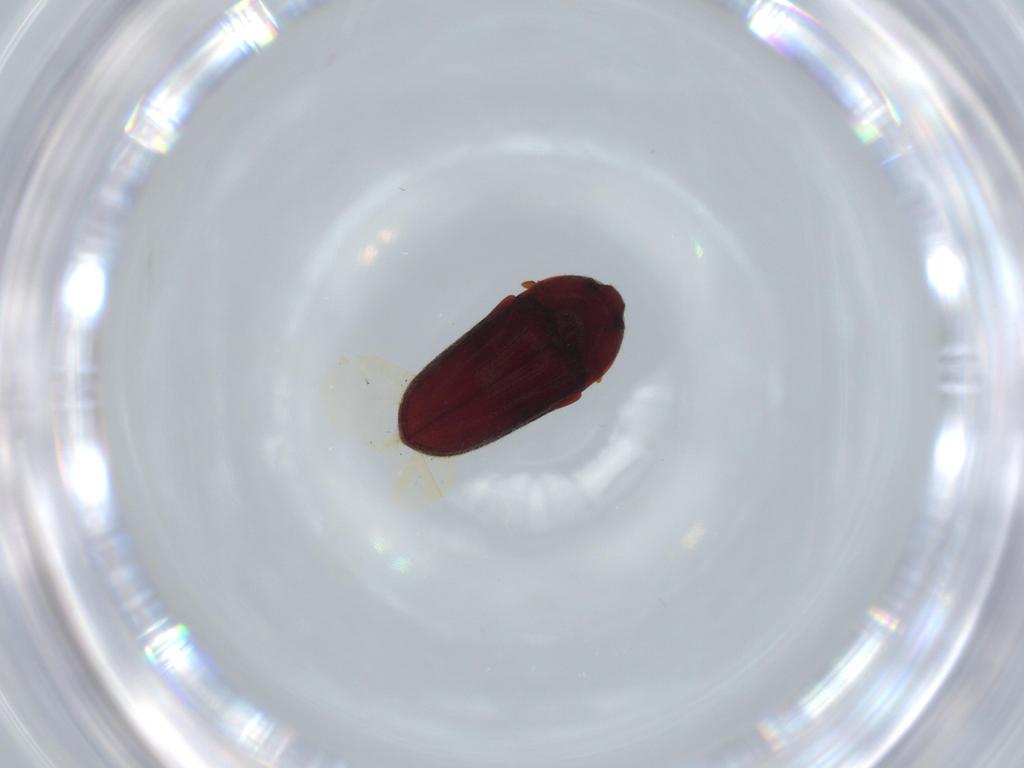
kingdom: Animalia
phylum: Arthropoda
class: Insecta
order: Coleoptera
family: Throscidae
